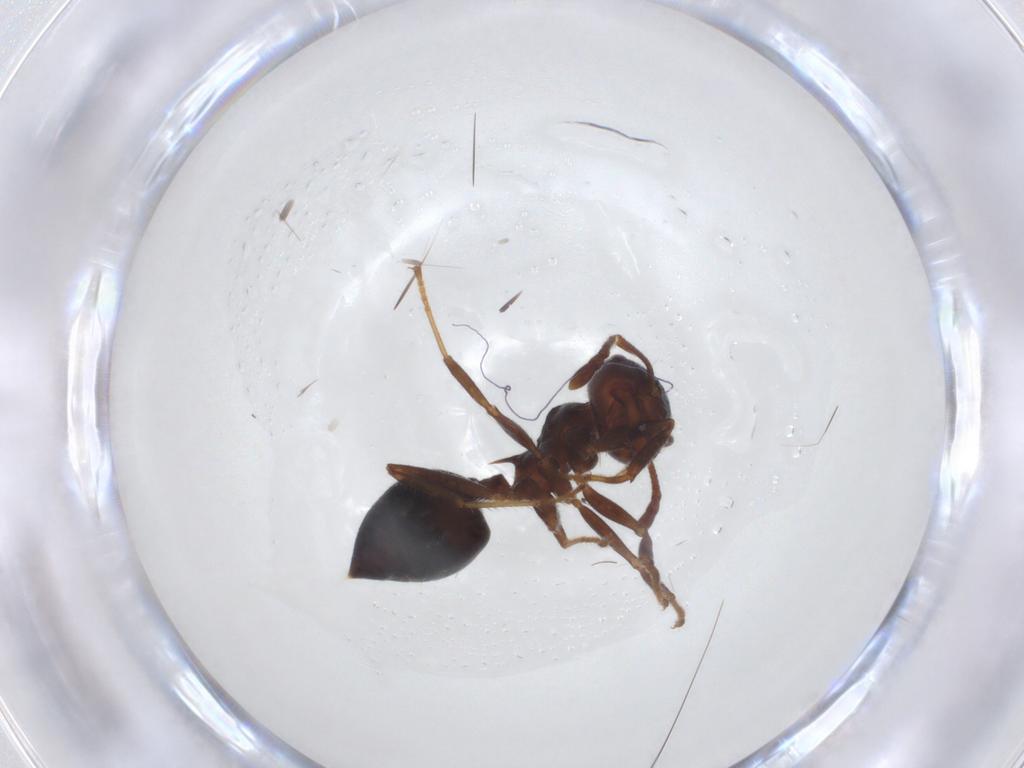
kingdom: Animalia
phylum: Arthropoda
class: Insecta
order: Hymenoptera
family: Formicidae
